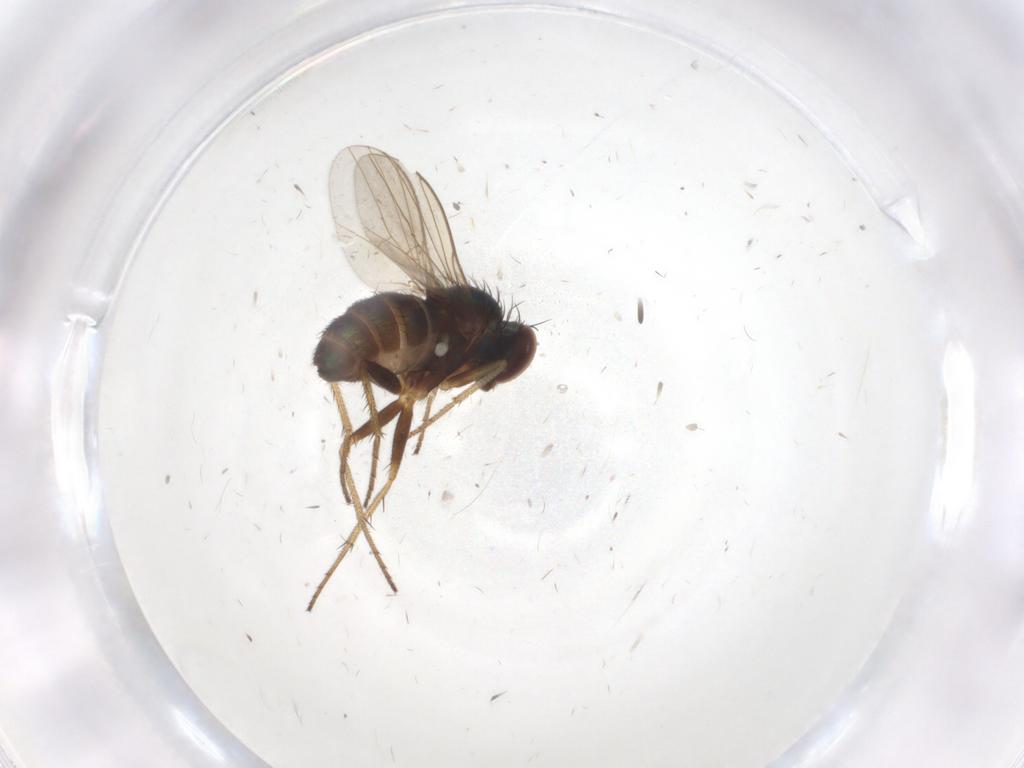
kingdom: Animalia
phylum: Arthropoda
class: Insecta
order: Diptera
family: Dolichopodidae
